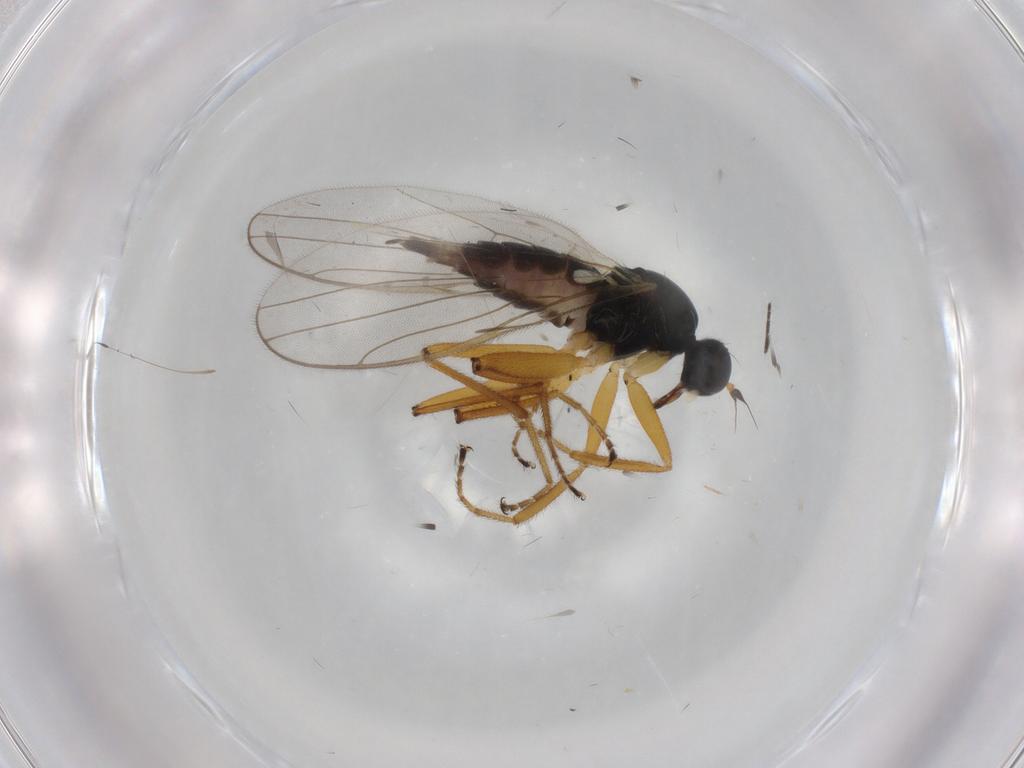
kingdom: Animalia
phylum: Arthropoda
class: Insecta
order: Diptera
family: Hybotidae
